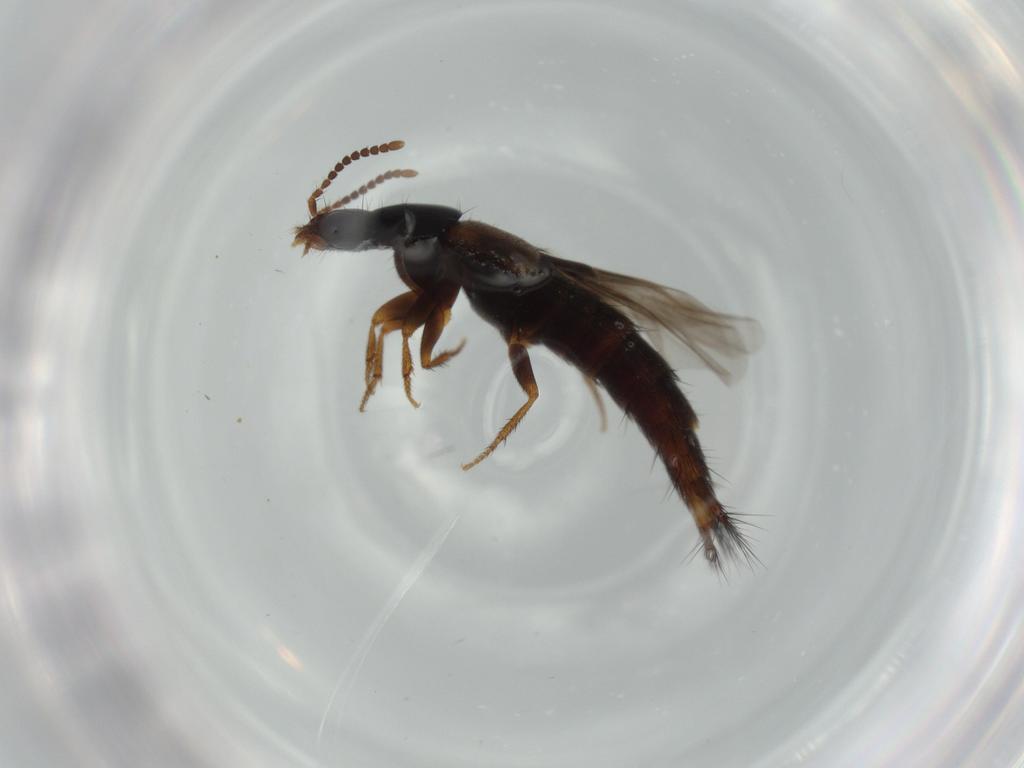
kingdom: Animalia
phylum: Arthropoda
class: Insecta
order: Coleoptera
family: Staphylinidae
